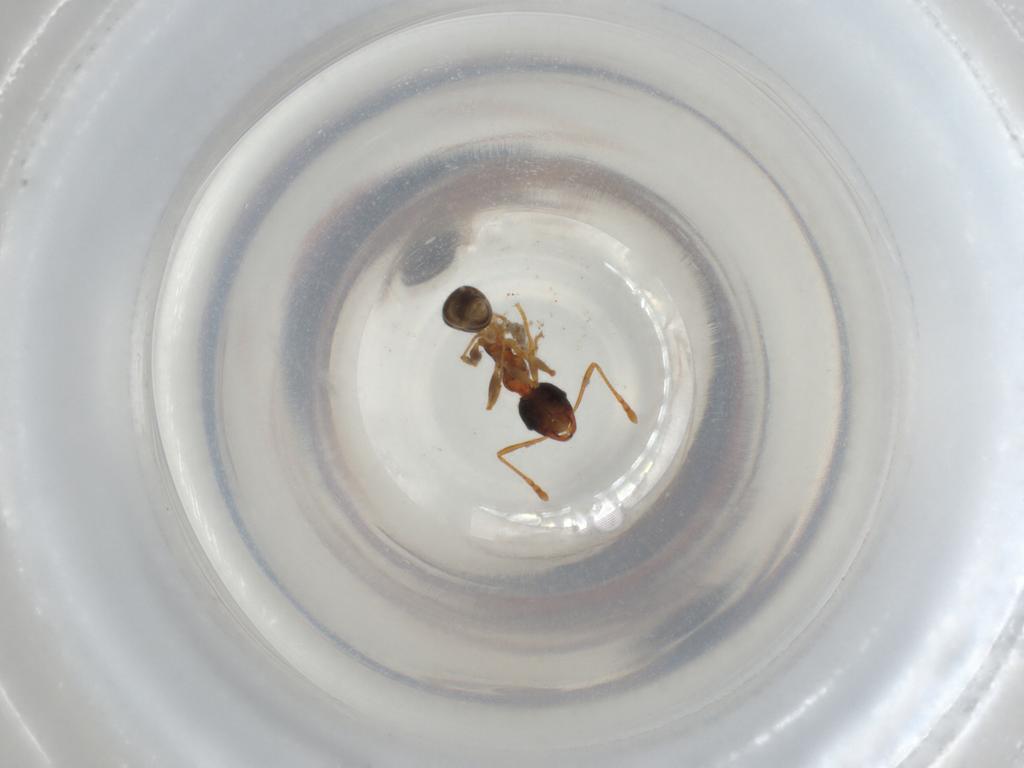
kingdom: Animalia
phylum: Arthropoda
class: Insecta
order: Hymenoptera
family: Formicidae
